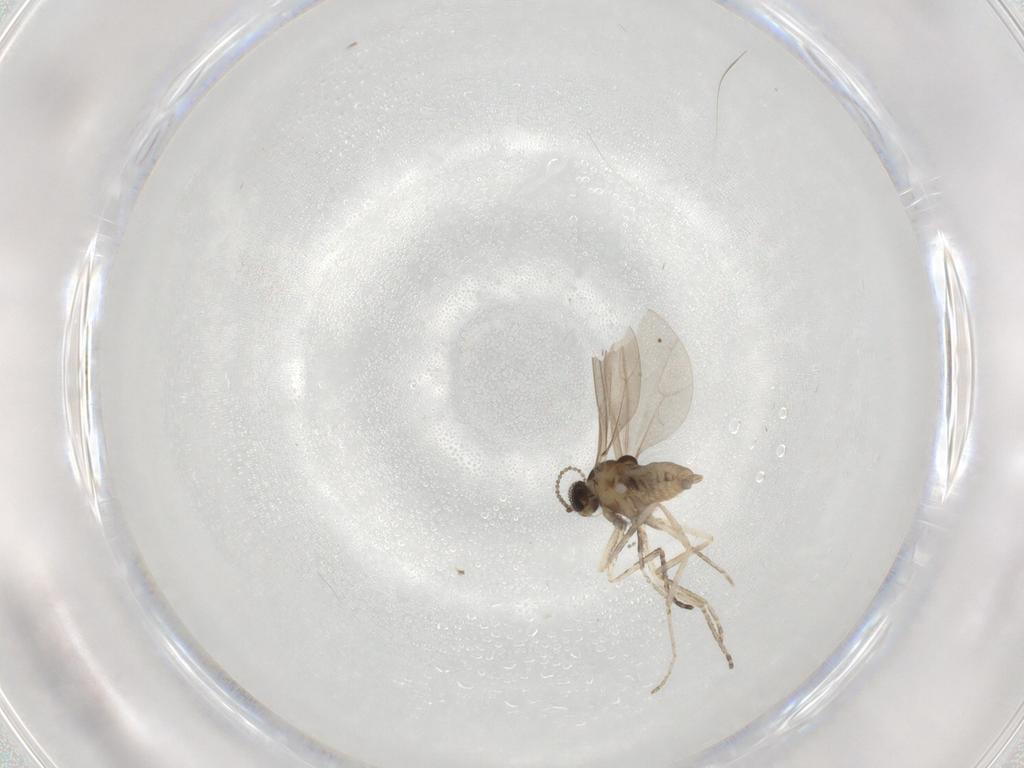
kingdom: Animalia
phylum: Arthropoda
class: Insecta
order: Diptera
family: Cecidomyiidae
